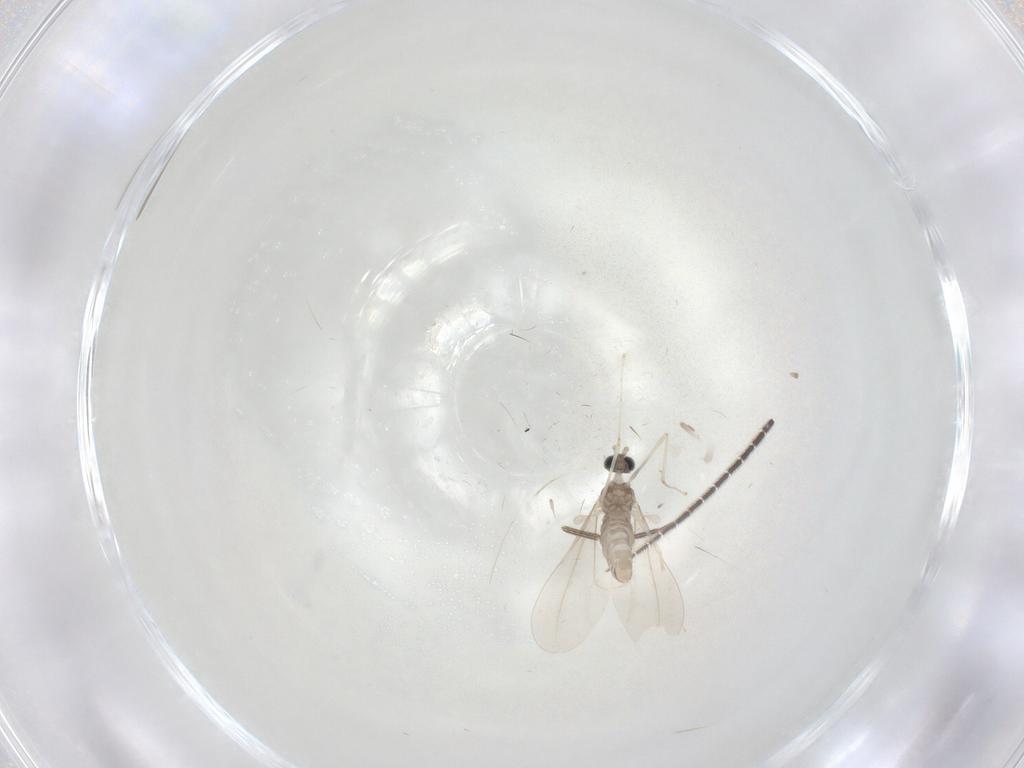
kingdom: Animalia
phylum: Arthropoda
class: Insecta
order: Diptera
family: Cecidomyiidae
